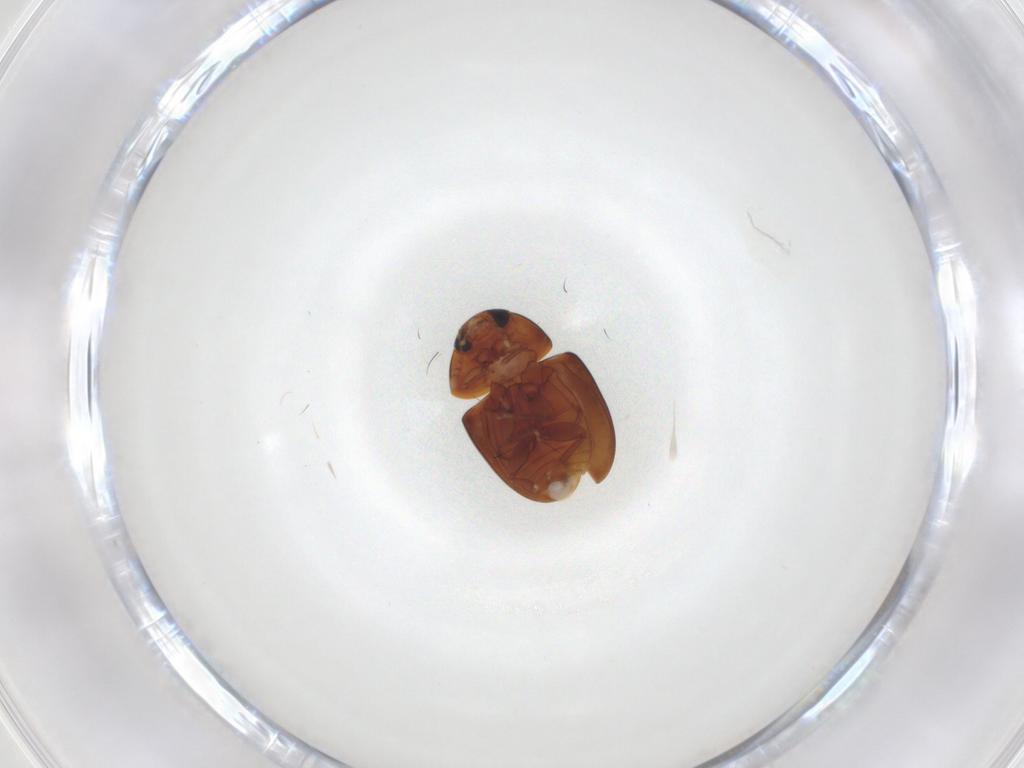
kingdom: Animalia
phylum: Arthropoda
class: Insecta
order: Coleoptera
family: Phalacridae
